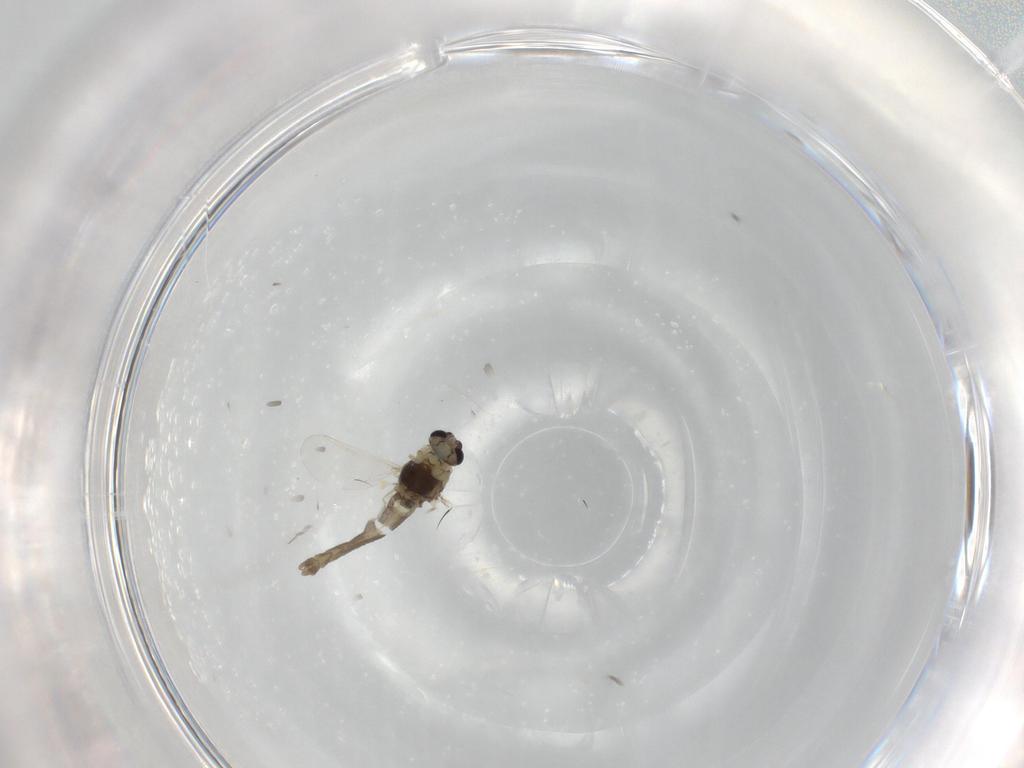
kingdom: Animalia
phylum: Arthropoda
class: Insecta
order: Diptera
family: Chironomidae
